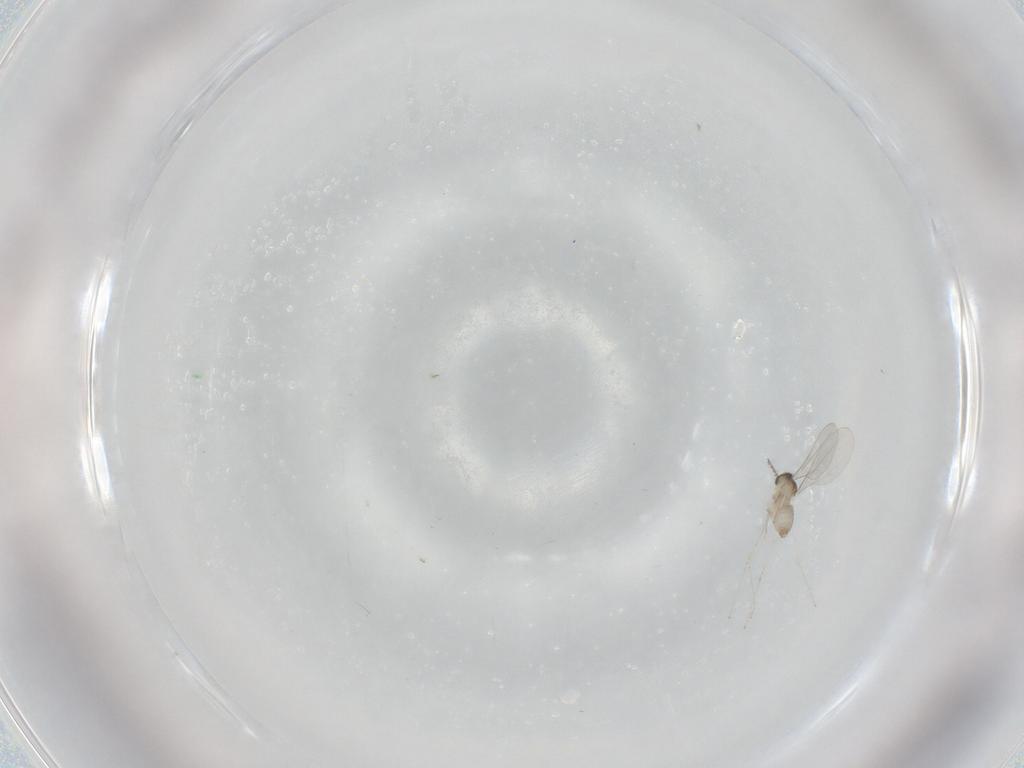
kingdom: Animalia
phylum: Arthropoda
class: Insecta
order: Diptera
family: Cecidomyiidae
